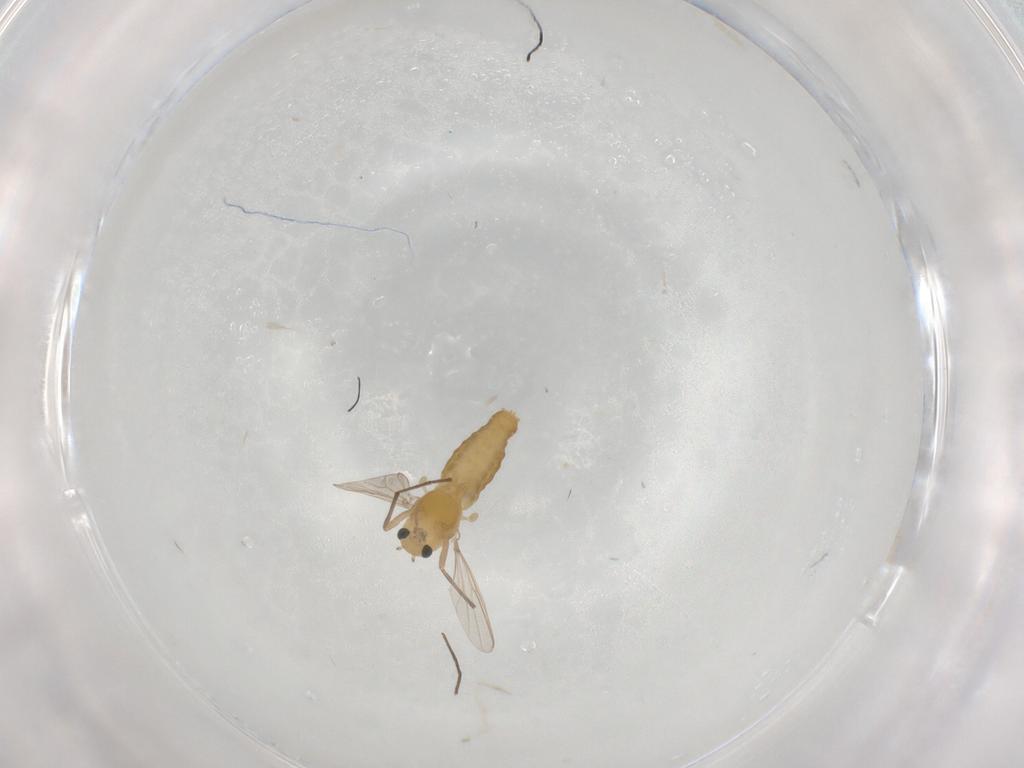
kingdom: Animalia
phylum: Arthropoda
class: Insecta
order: Diptera
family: Chironomidae
